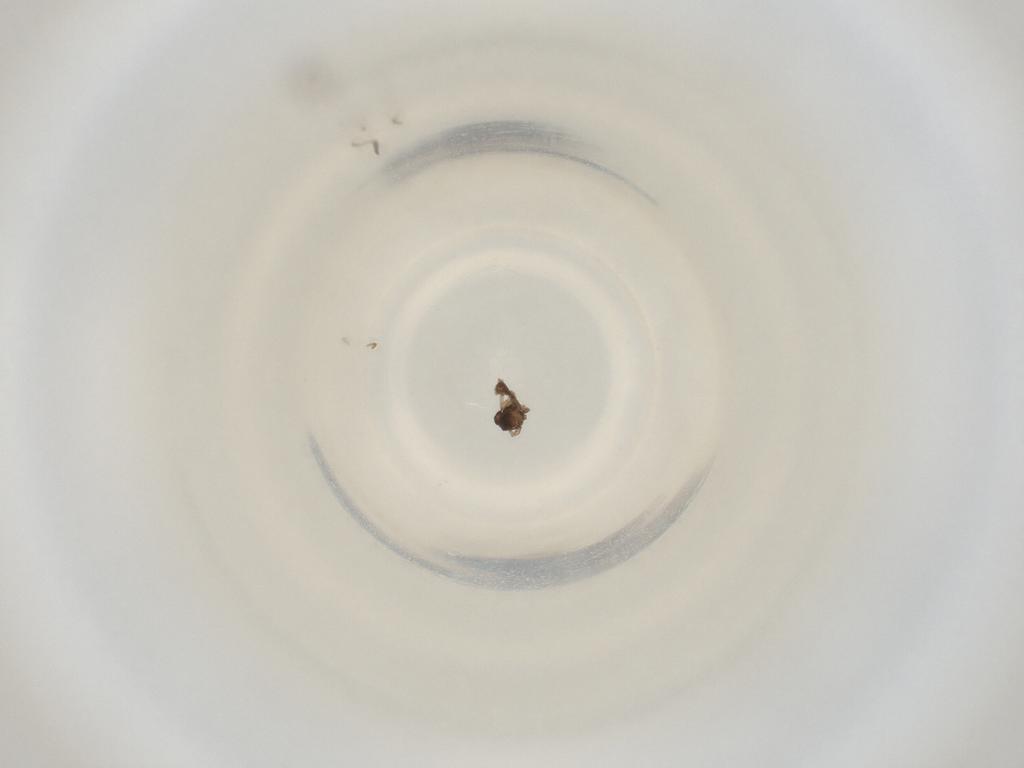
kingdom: Animalia
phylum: Arthropoda
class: Insecta
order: Diptera
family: Cecidomyiidae
